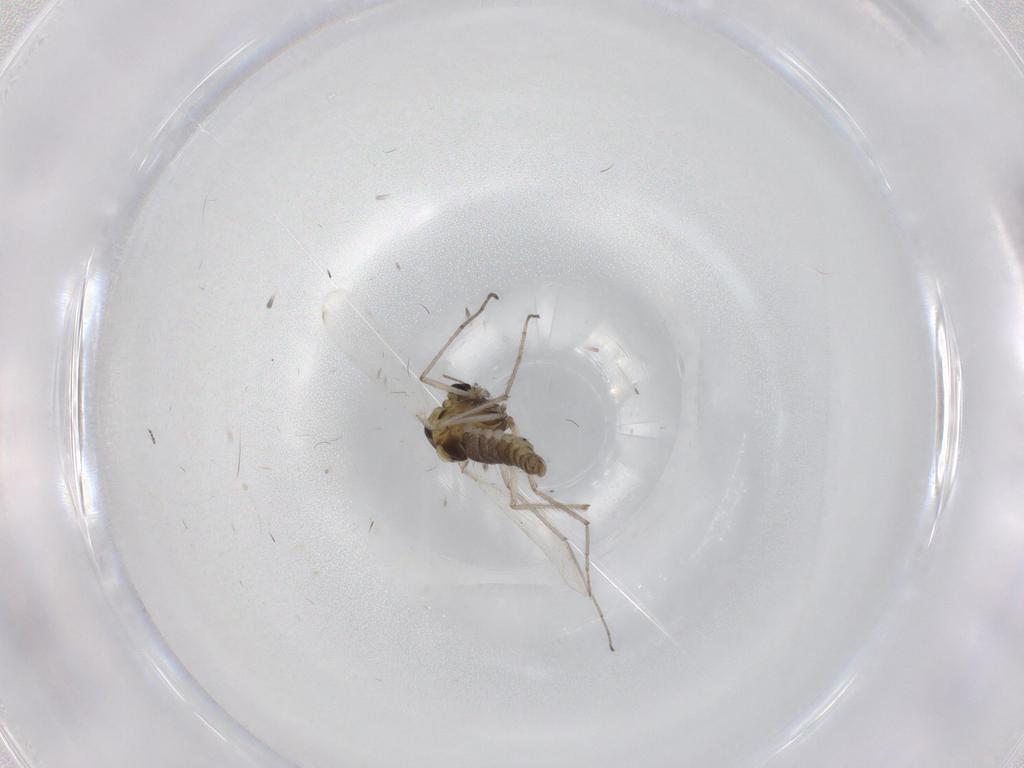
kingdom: Animalia
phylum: Arthropoda
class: Insecta
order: Diptera
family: Chironomidae
